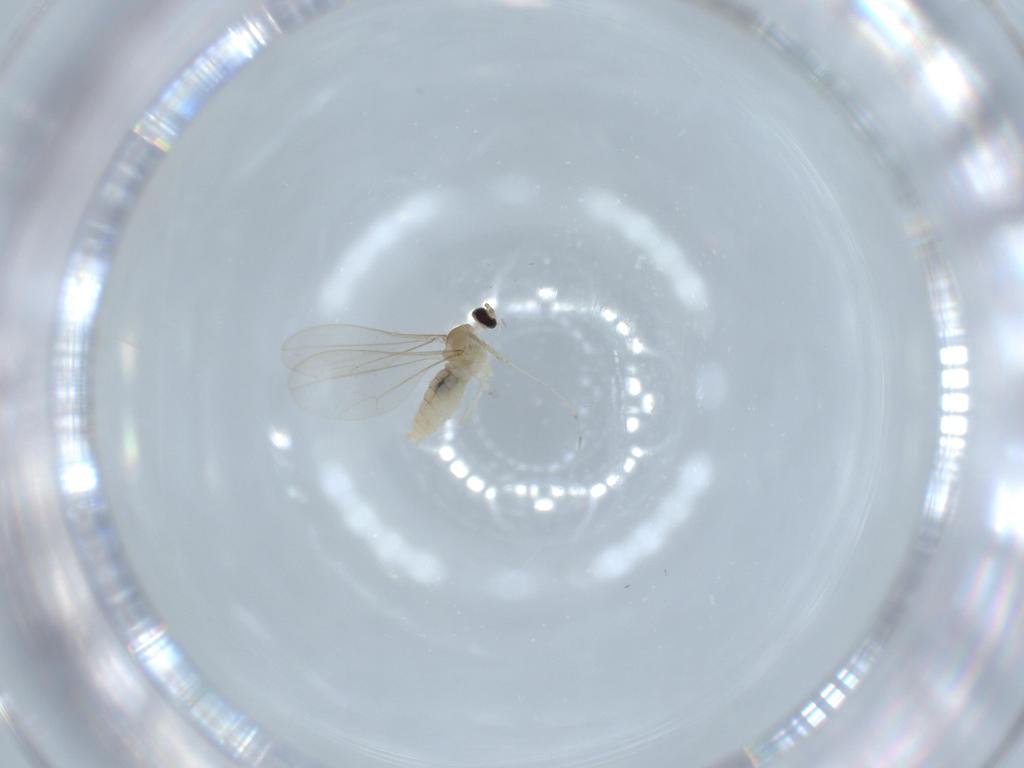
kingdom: Animalia
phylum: Arthropoda
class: Insecta
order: Diptera
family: Cecidomyiidae
